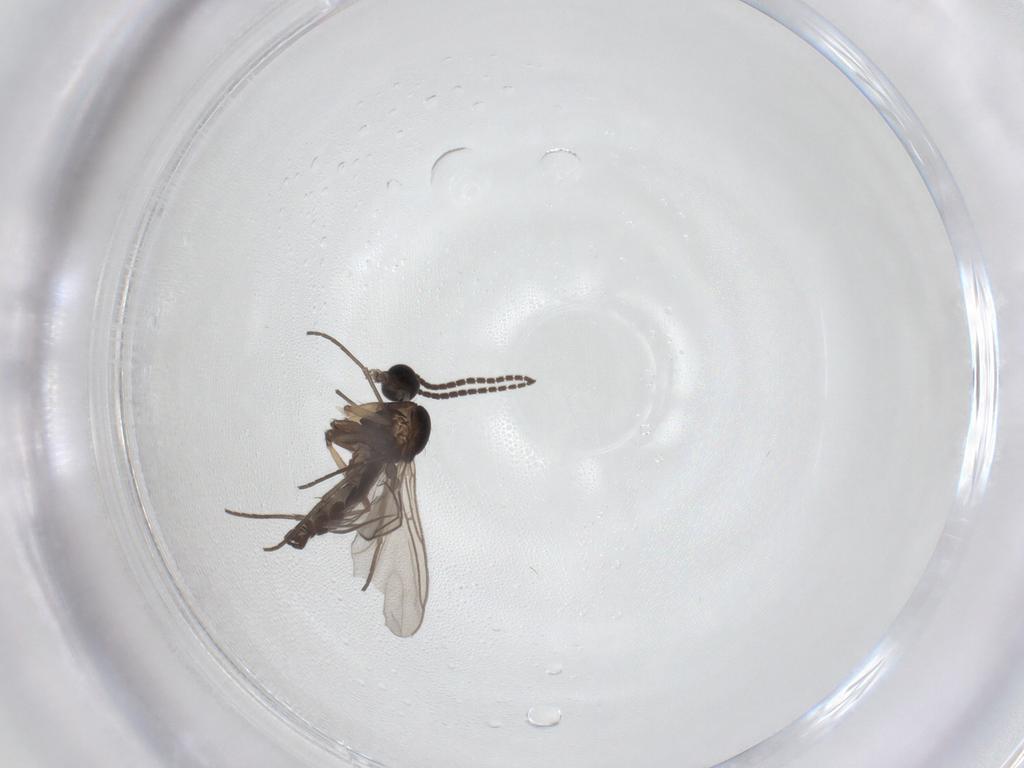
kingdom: Animalia
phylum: Arthropoda
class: Insecta
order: Diptera
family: Sciaridae
